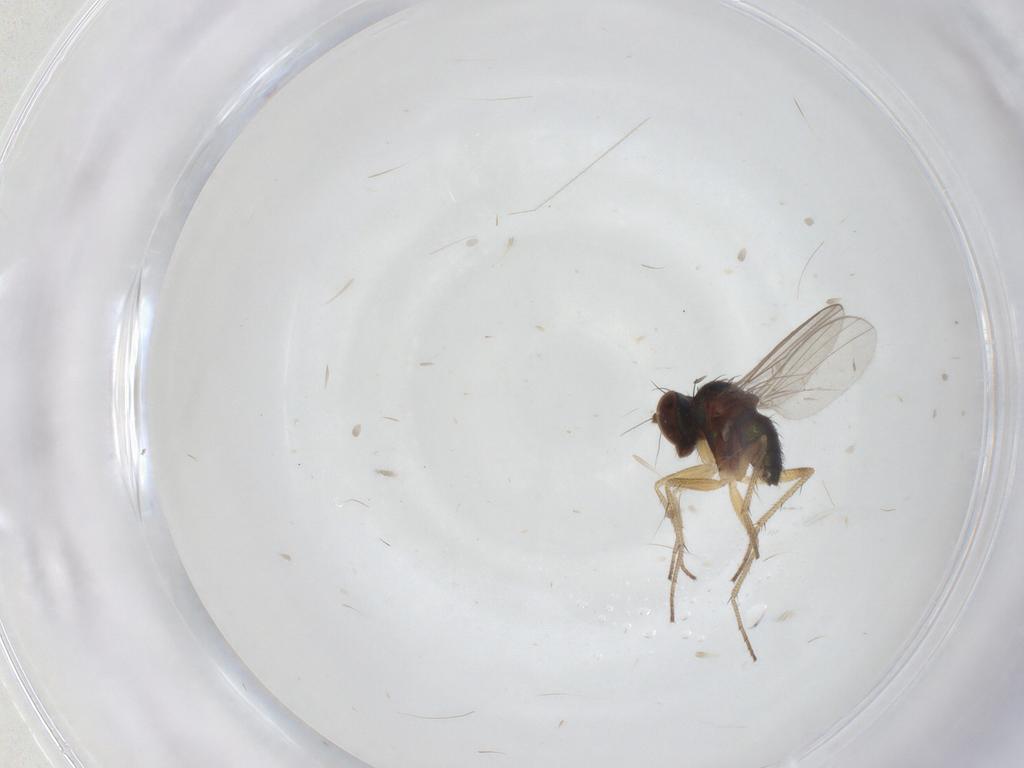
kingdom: Animalia
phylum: Arthropoda
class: Insecta
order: Diptera
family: Dolichopodidae
